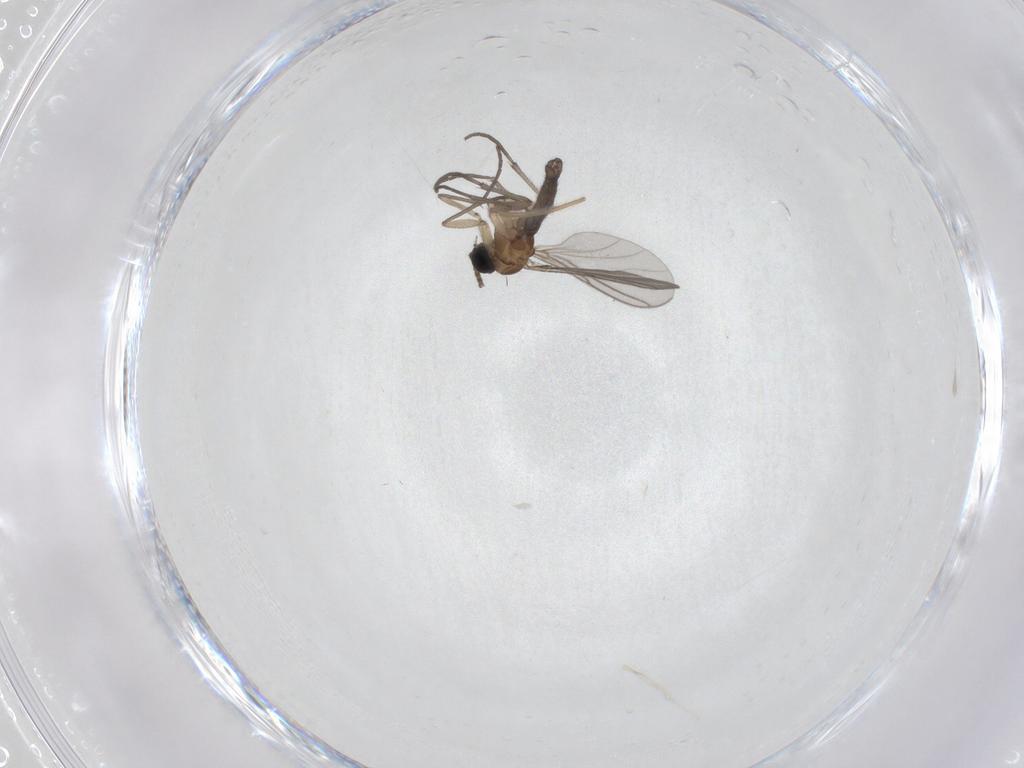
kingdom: Animalia
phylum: Arthropoda
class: Insecta
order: Diptera
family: Sciaridae
